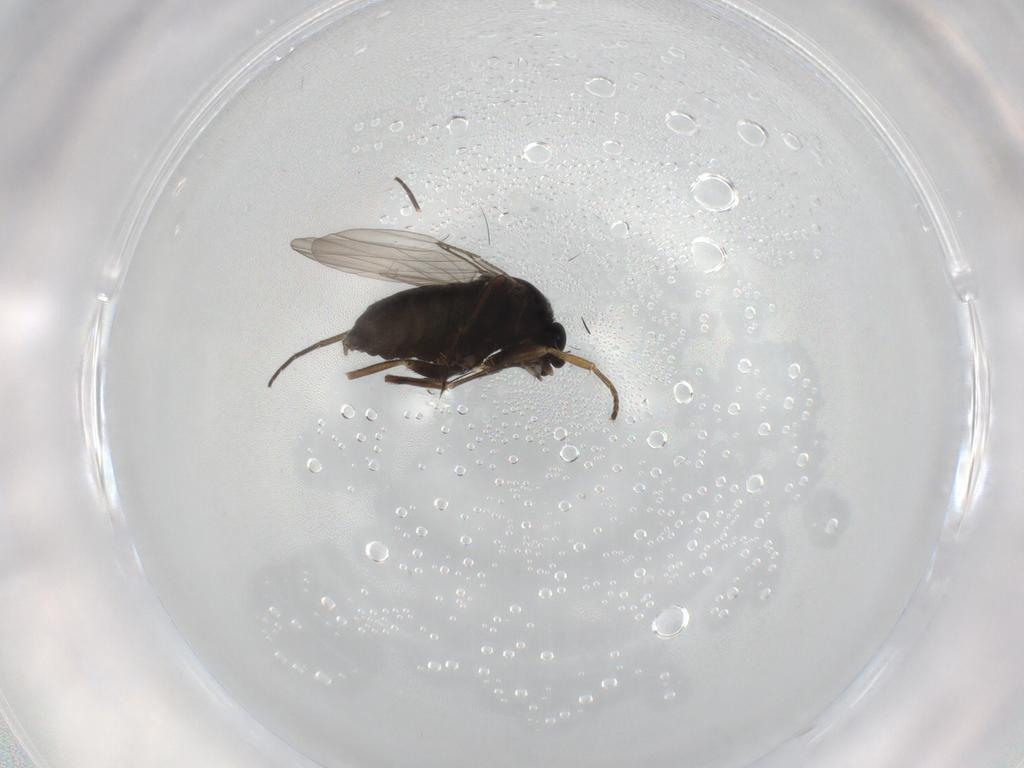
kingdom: Animalia
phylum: Arthropoda
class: Insecta
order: Diptera
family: Phoridae
